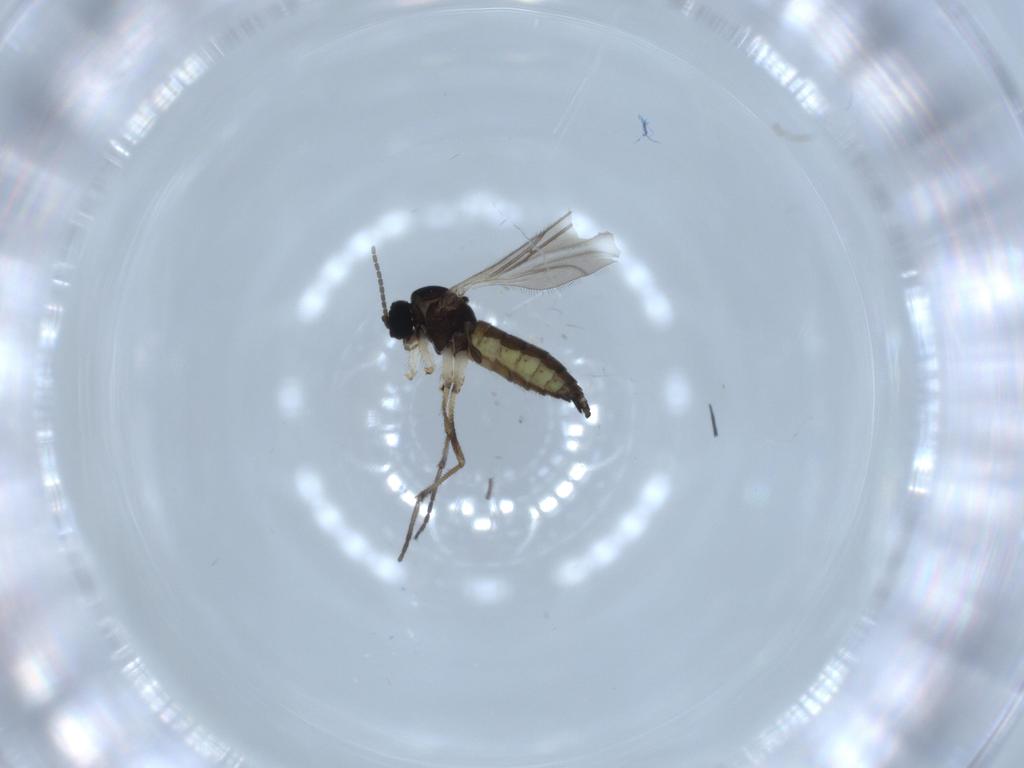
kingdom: Animalia
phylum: Arthropoda
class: Insecta
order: Diptera
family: Sciaridae
